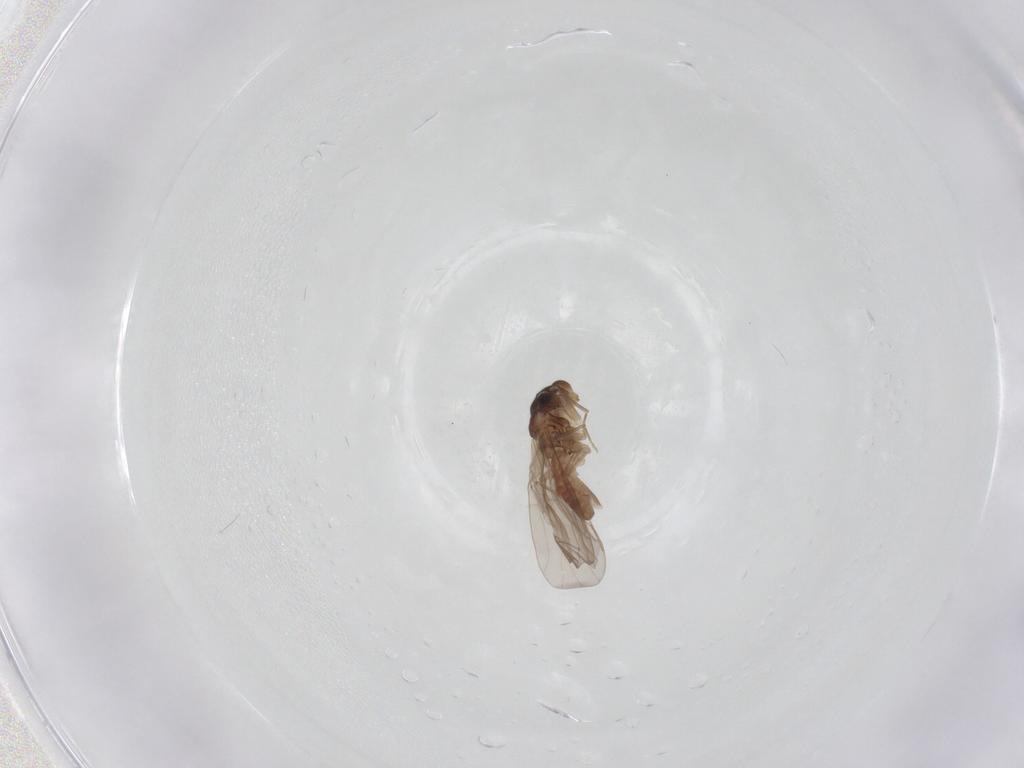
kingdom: Animalia
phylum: Arthropoda
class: Insecta
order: Psocodea
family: Lepidopsocidae
